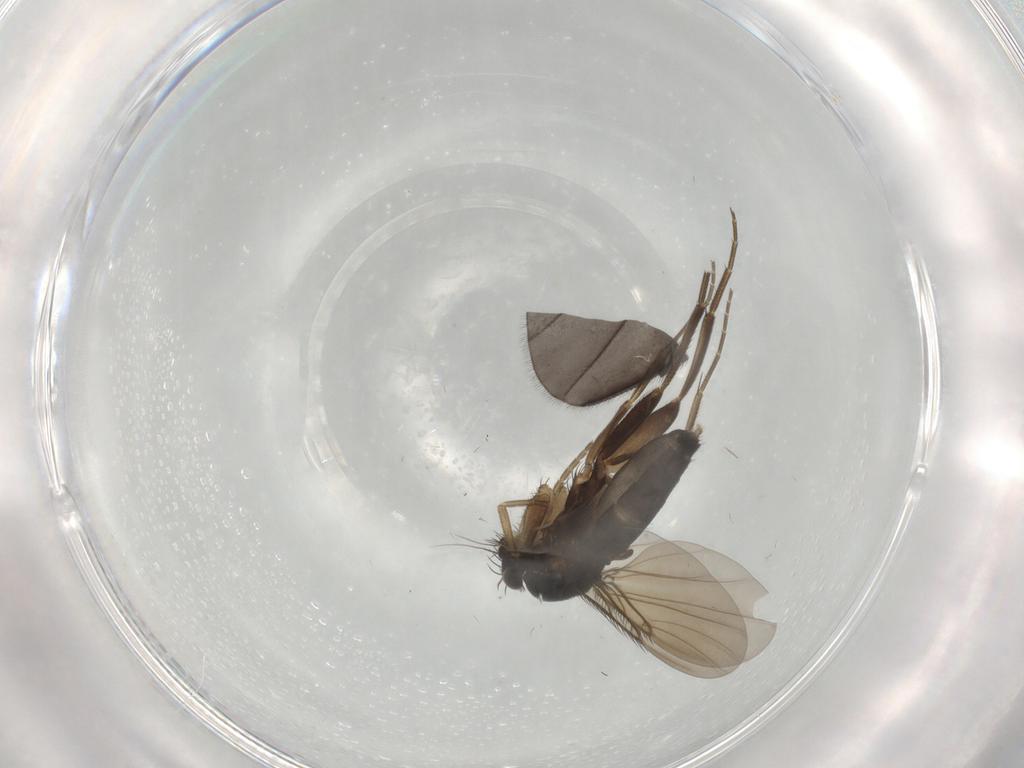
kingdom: Animalia
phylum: Arthropoda
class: Insecta
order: Diptera
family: Phoridae
